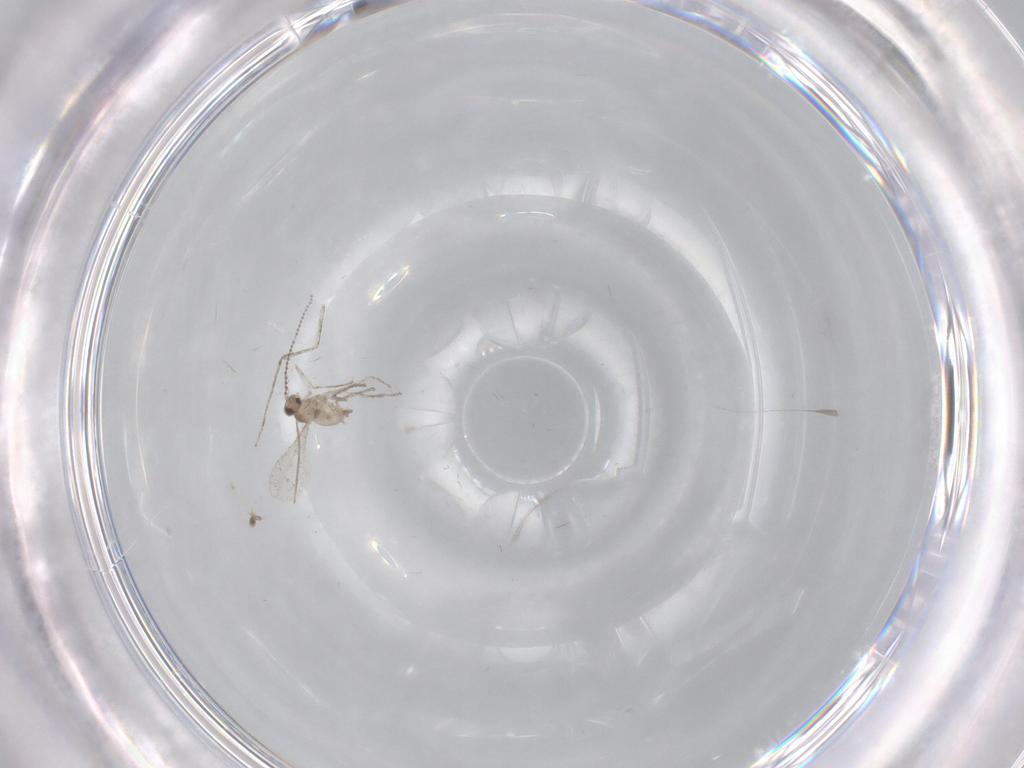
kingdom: Animalia
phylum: Arthropoda
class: Insecta
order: Diptera
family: Cecidomyiidae
